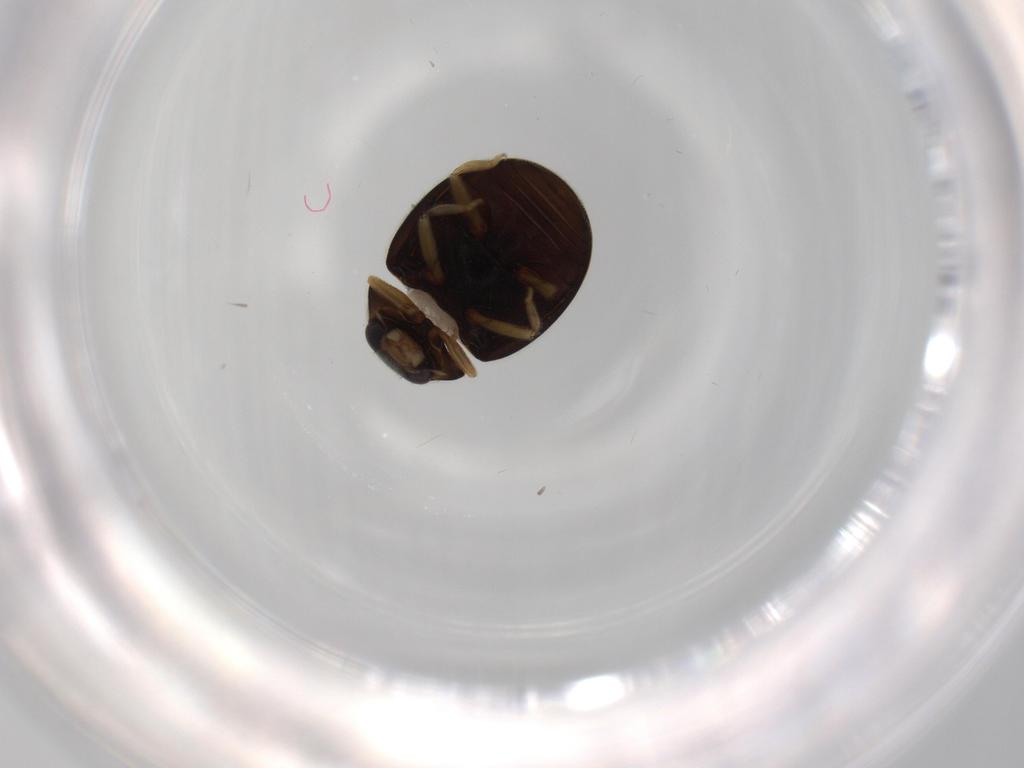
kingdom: Animalia
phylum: Arthropoda
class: Insecta
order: Coleoptera
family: Coccinellidae
